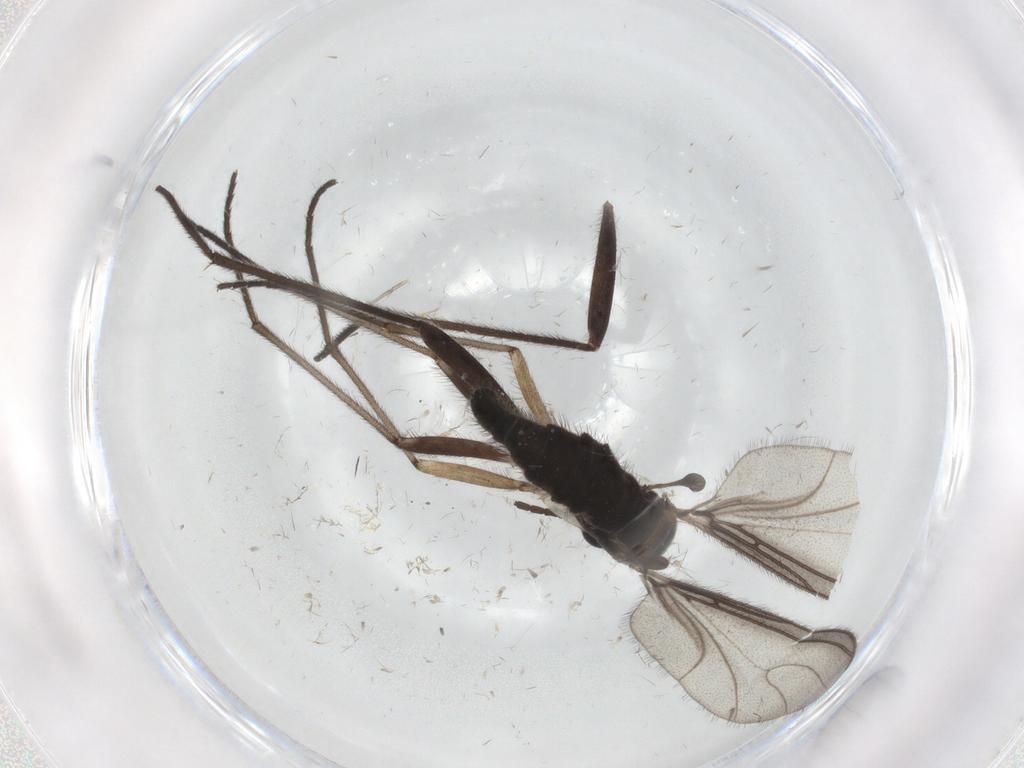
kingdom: Animalia
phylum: Arthropoda
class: Insecta
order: Diptera
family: Sciaridae
